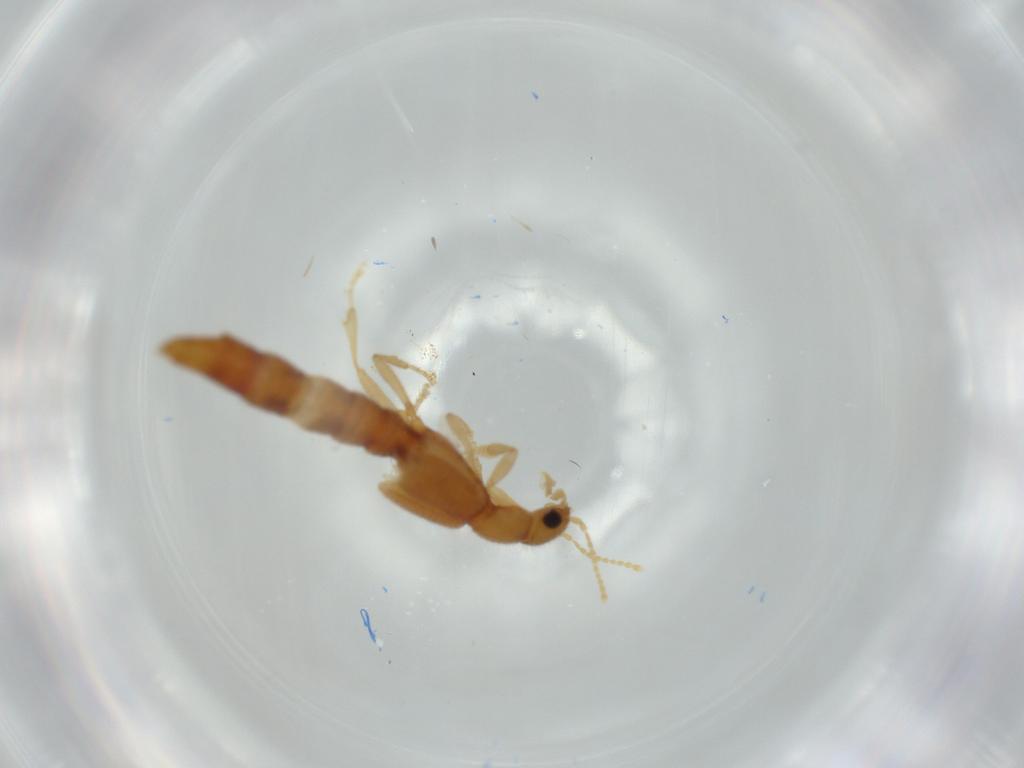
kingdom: Animalia
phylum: Arthropoda
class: Insecta
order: Coleoptera
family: Staphylinidae
